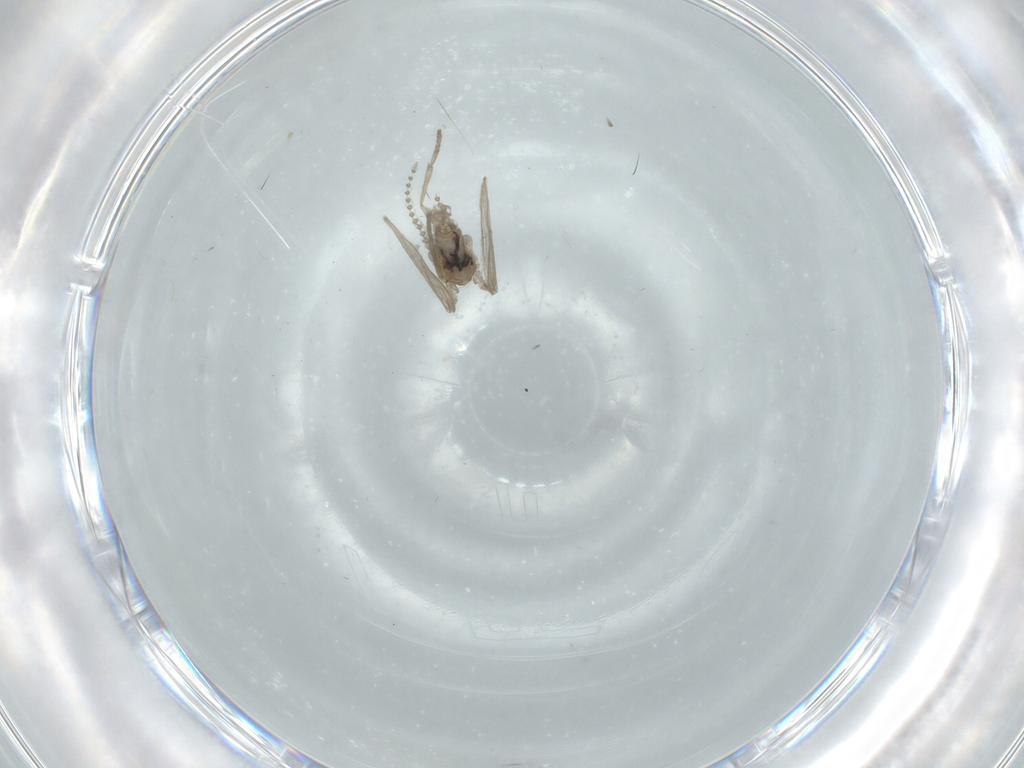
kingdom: Animalia
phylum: Arthropoda
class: Insecta
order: Diptera
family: Psychodidae
